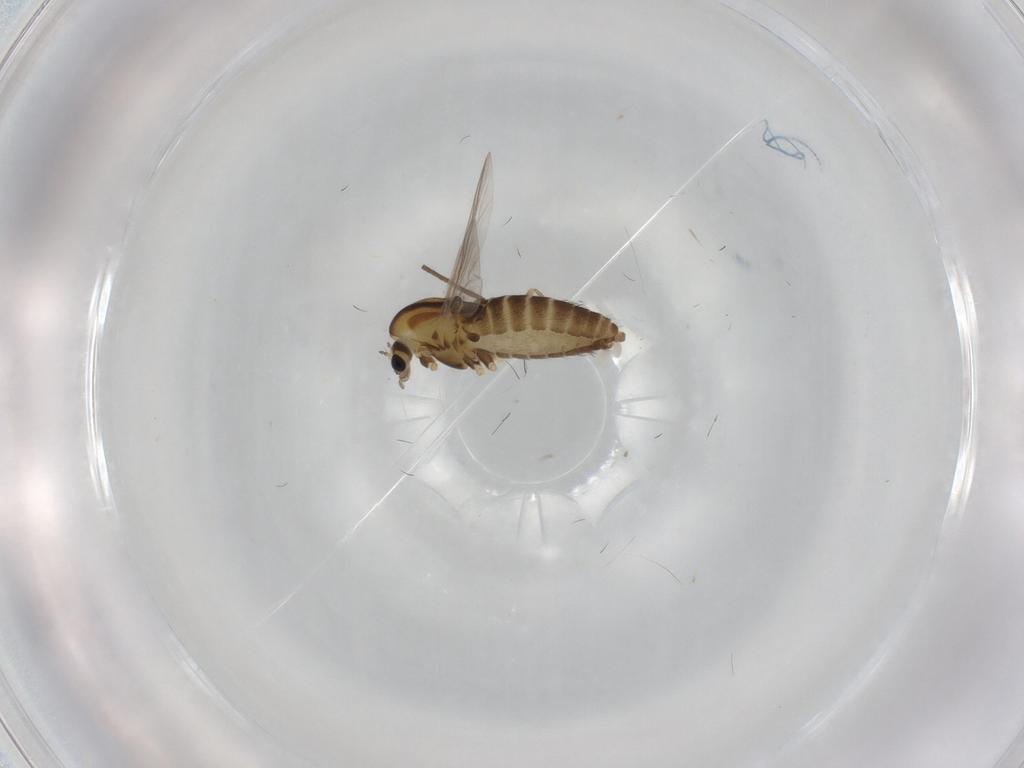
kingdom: Animalia
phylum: Arthropoda
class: Insecta
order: Diptera
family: Chironomidae
